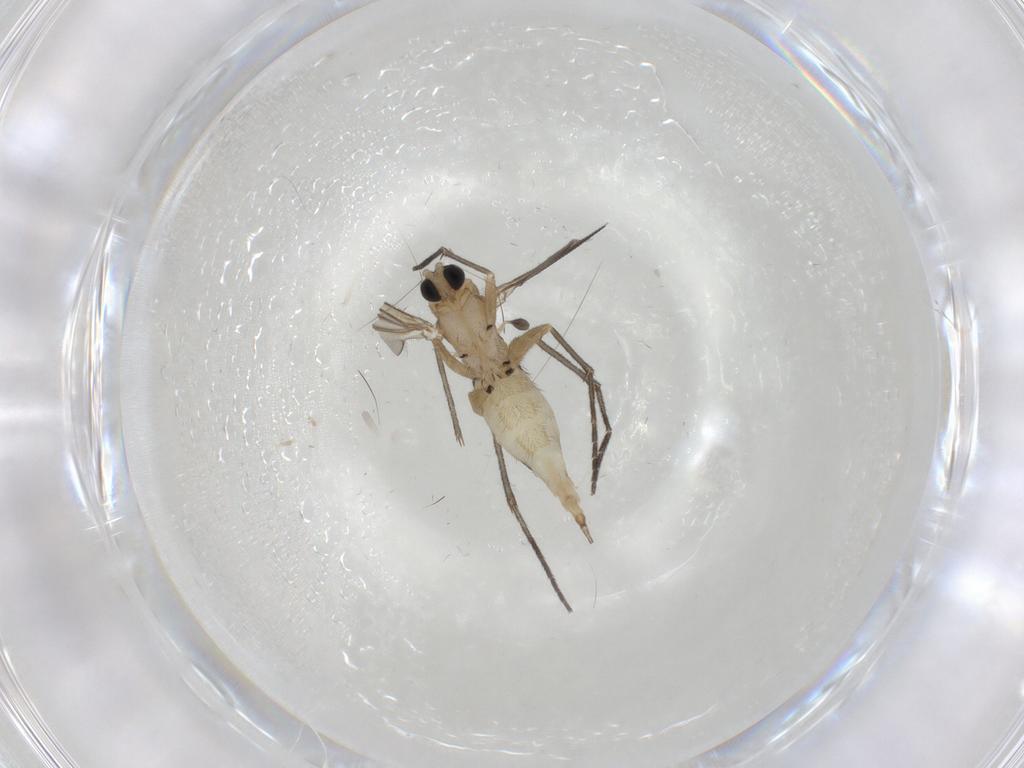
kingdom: Animalia
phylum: Arthropoda
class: Insecta
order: Diptera
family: Sciaridae
